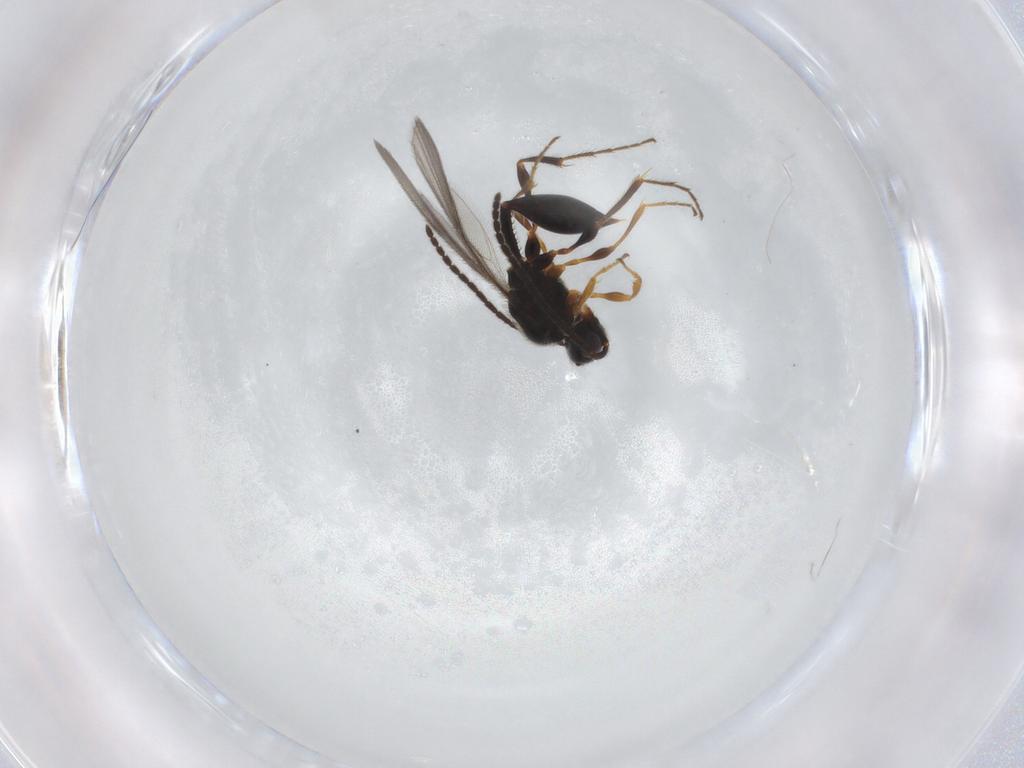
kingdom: Animalia
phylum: Arthropoda
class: Insecta
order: Hymenoptera
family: Diapriidae
